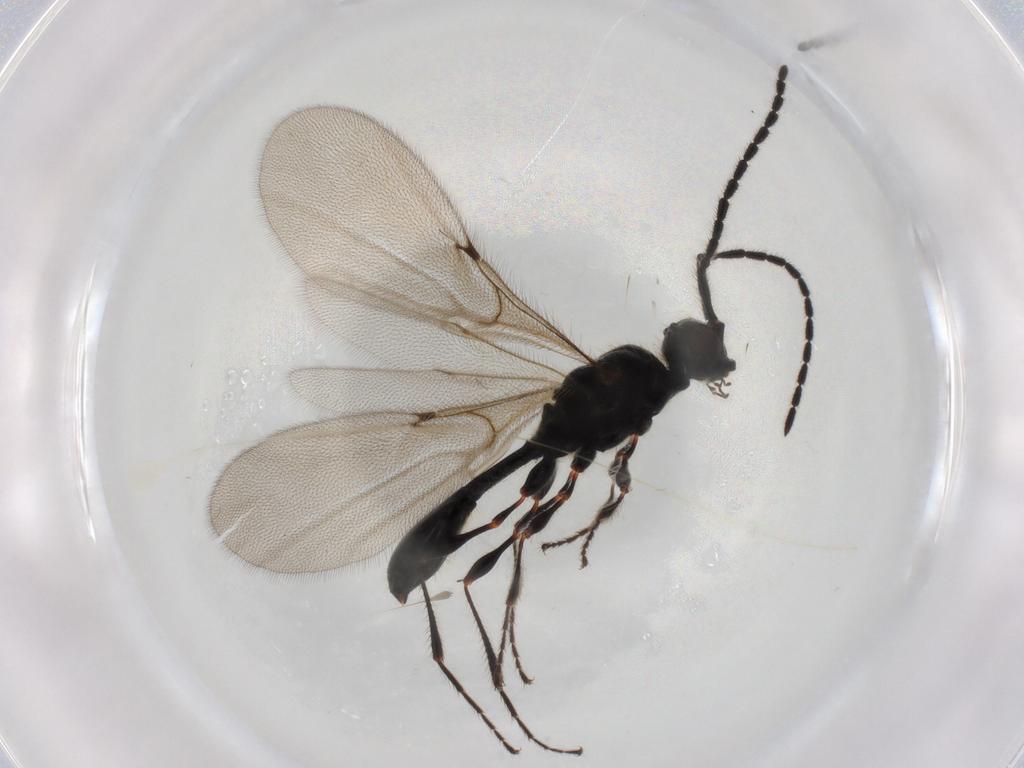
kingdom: Animalia
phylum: Arthropoda
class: Insecta
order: Hymenoptera
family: Diapriidae
